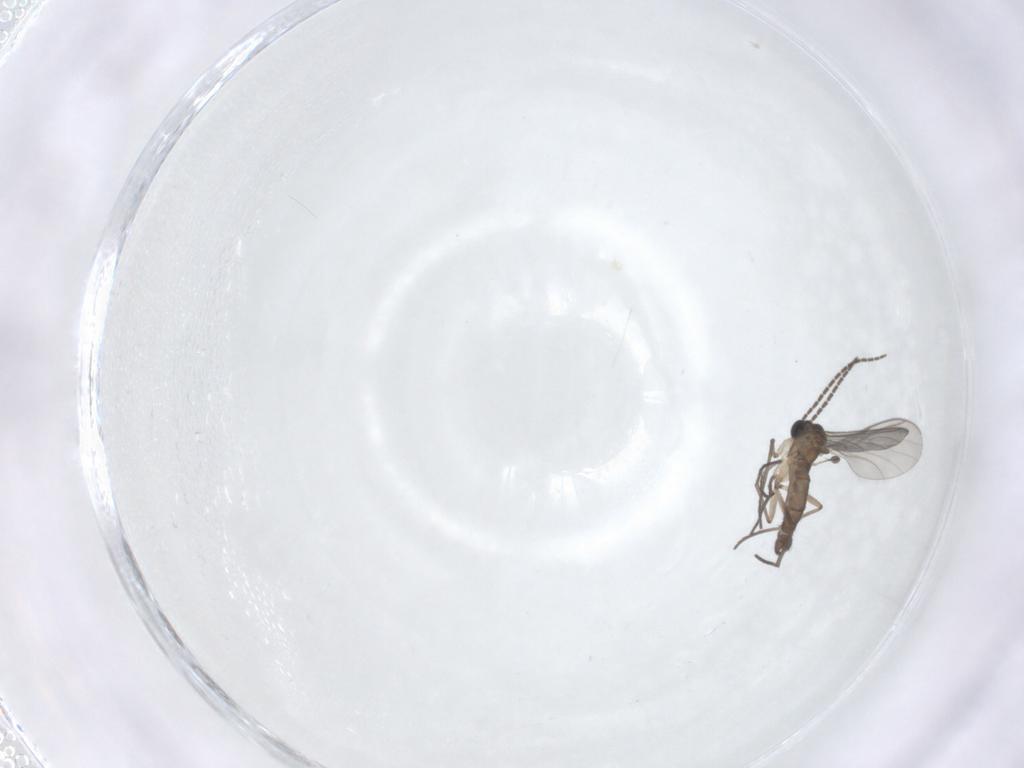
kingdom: Animalia
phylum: Arthropoda
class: Insecta
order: Diptera
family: Sciaridae
